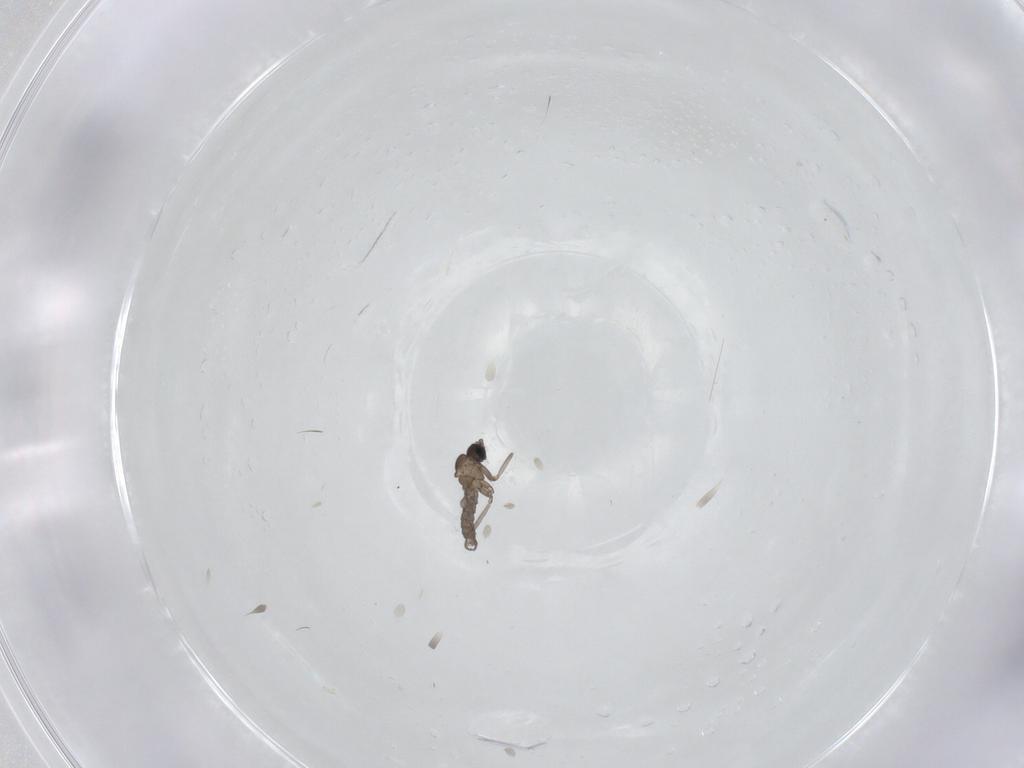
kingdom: Animalia
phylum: Arthropoda
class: Insecta
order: Diptera
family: Sciaridae
